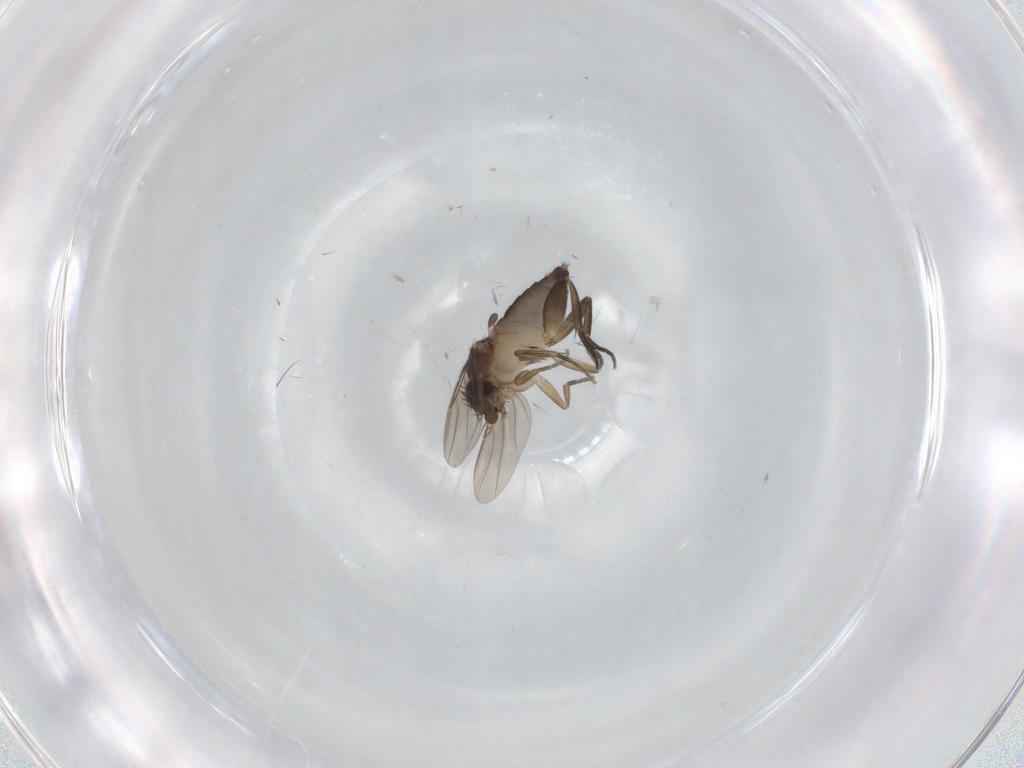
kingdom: Animalia
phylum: Arthropoda
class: Insecta
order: Diptera
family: Phoridae
